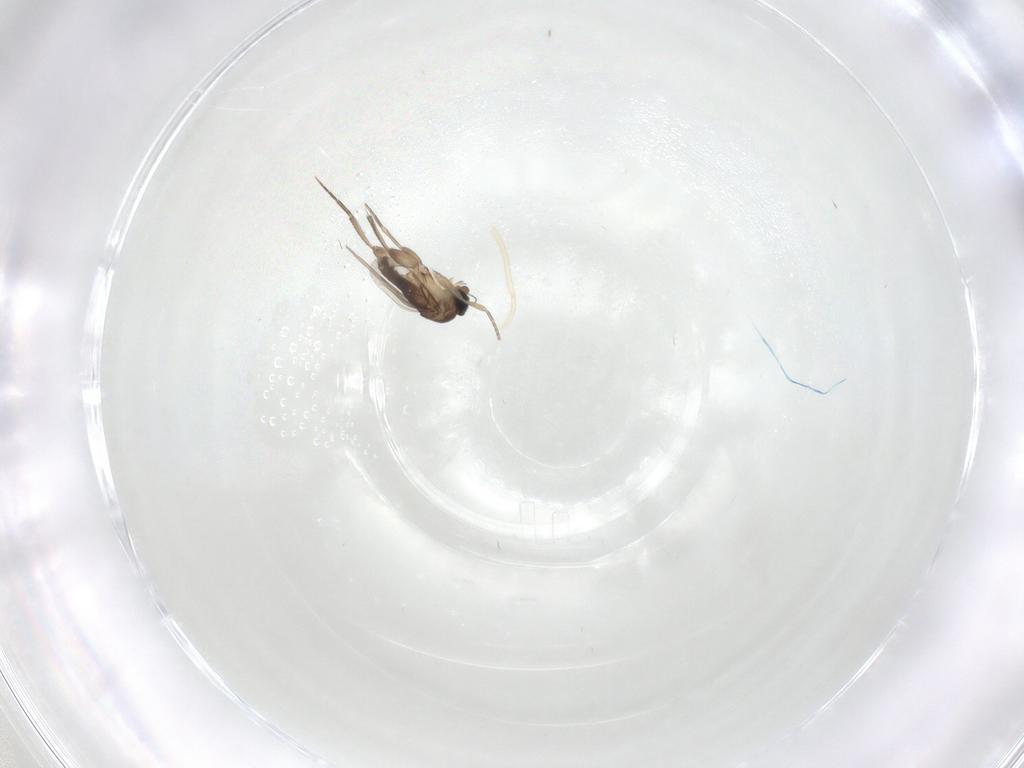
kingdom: Animalia
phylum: Arthropoda
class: Insecta
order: Diptera
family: Phoridae
